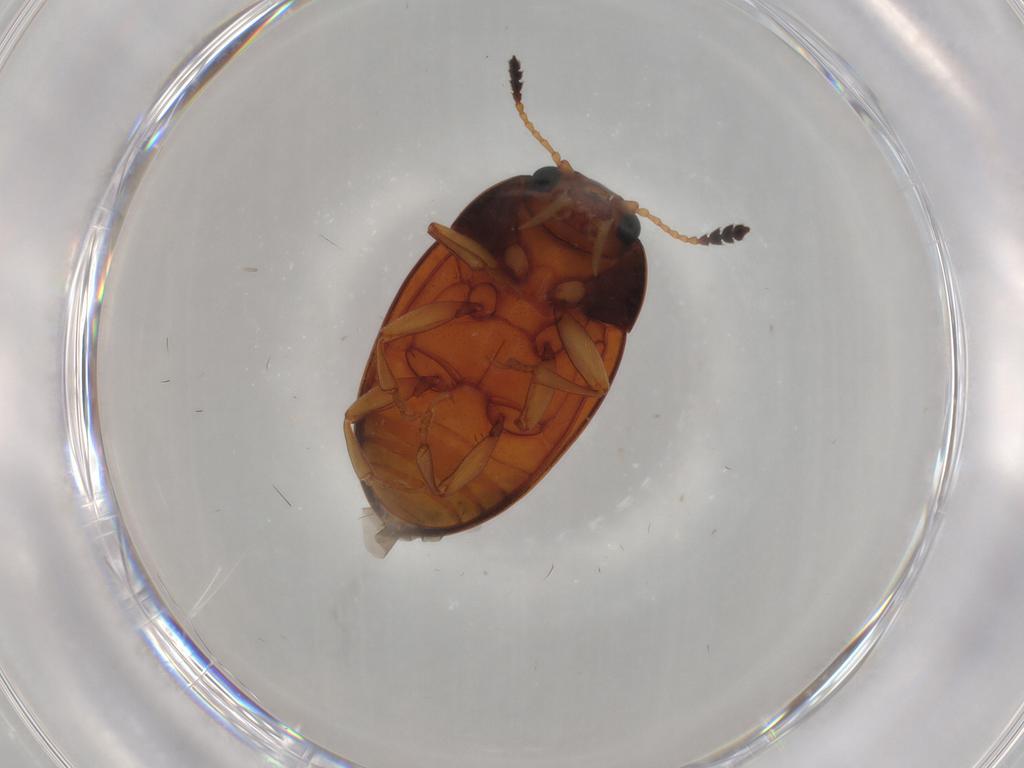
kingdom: Animalia
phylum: Arthropoda
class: Insecta
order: Coleoptera
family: Erotylidae
